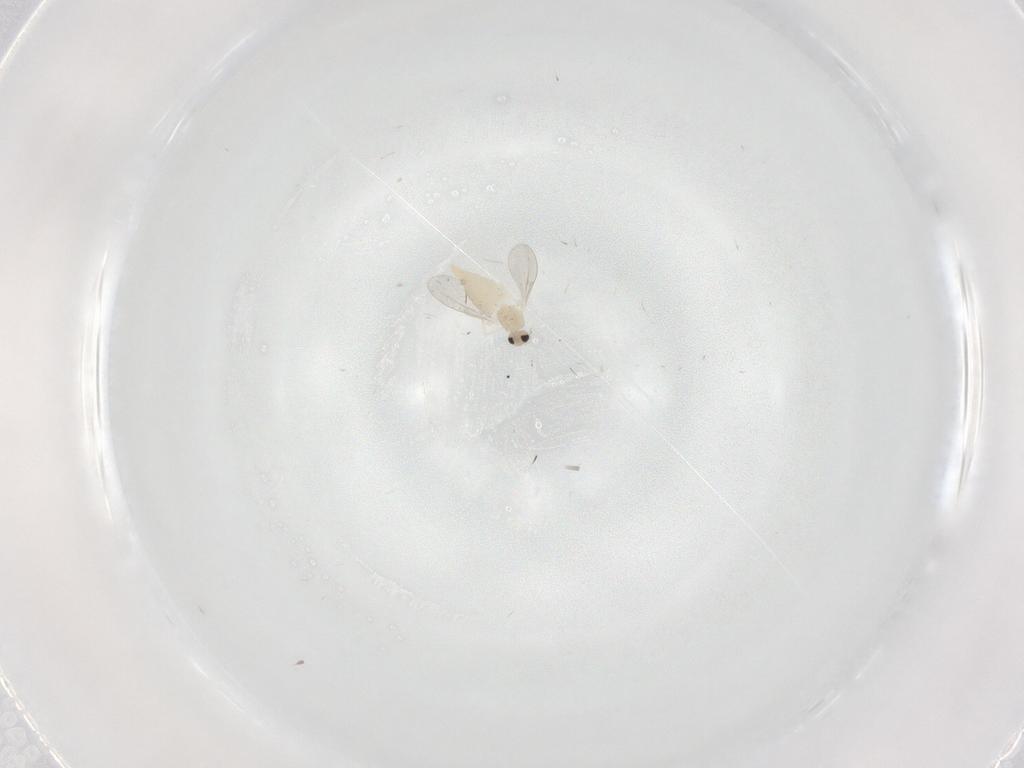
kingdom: Animalia
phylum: Arthropoda
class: Insecta
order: Diptera
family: Cecidomyiidae
